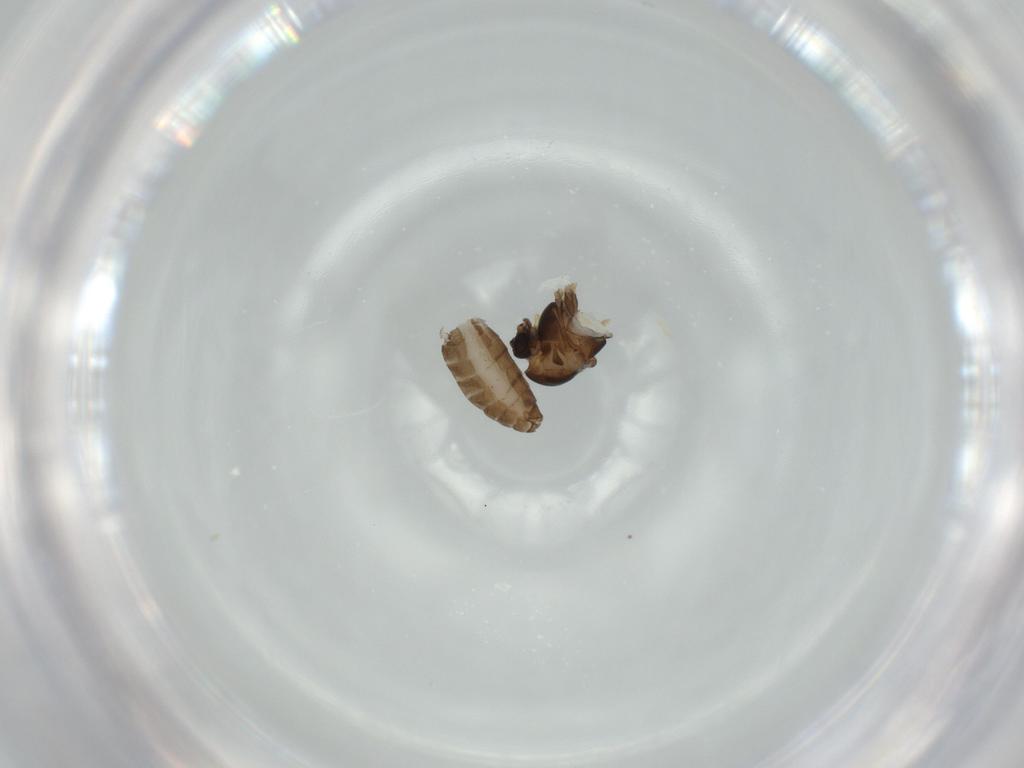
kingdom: Animalia
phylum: Arthropoda
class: Insecta
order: Diptera
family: Chironomidae
